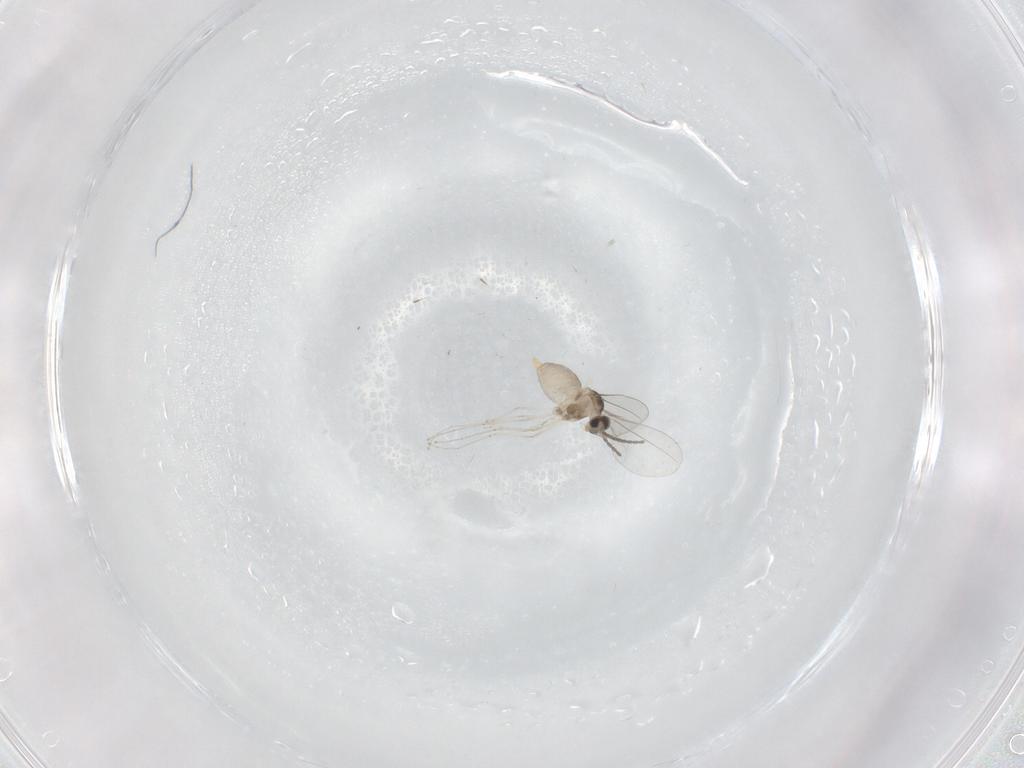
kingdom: Animalia
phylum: Arthropoda
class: Insecta
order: Diptera
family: Cecidomyiidae
